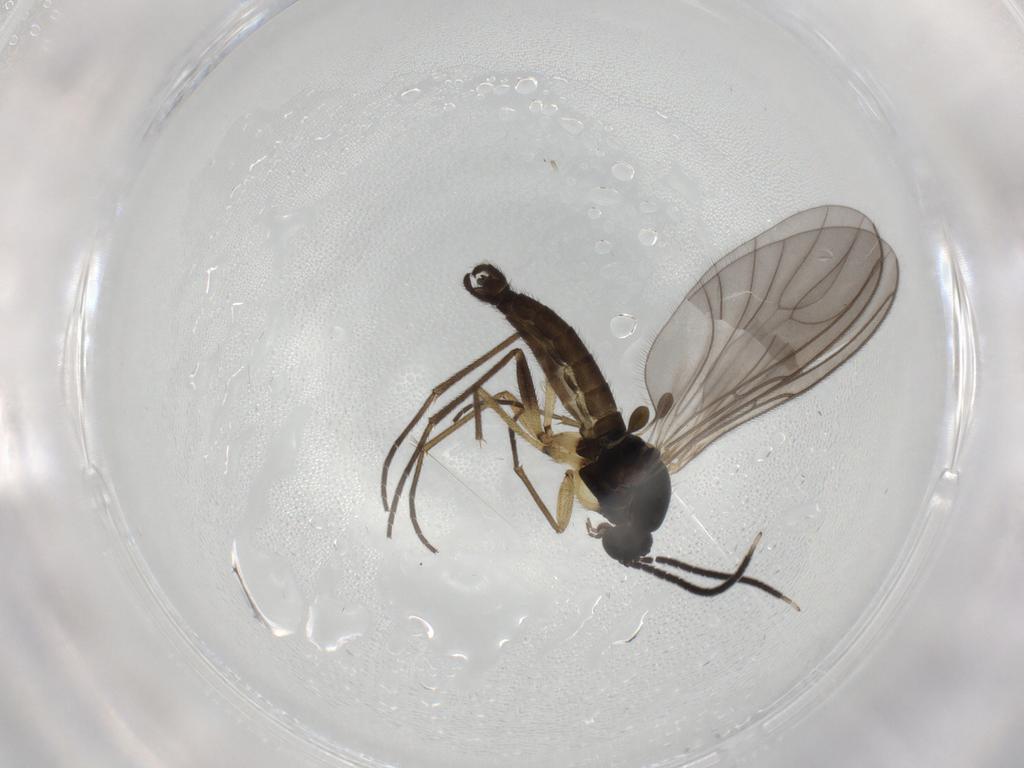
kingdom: Animalia
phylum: Arthropoda
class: Insecta
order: Diptera
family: Sciaridae
